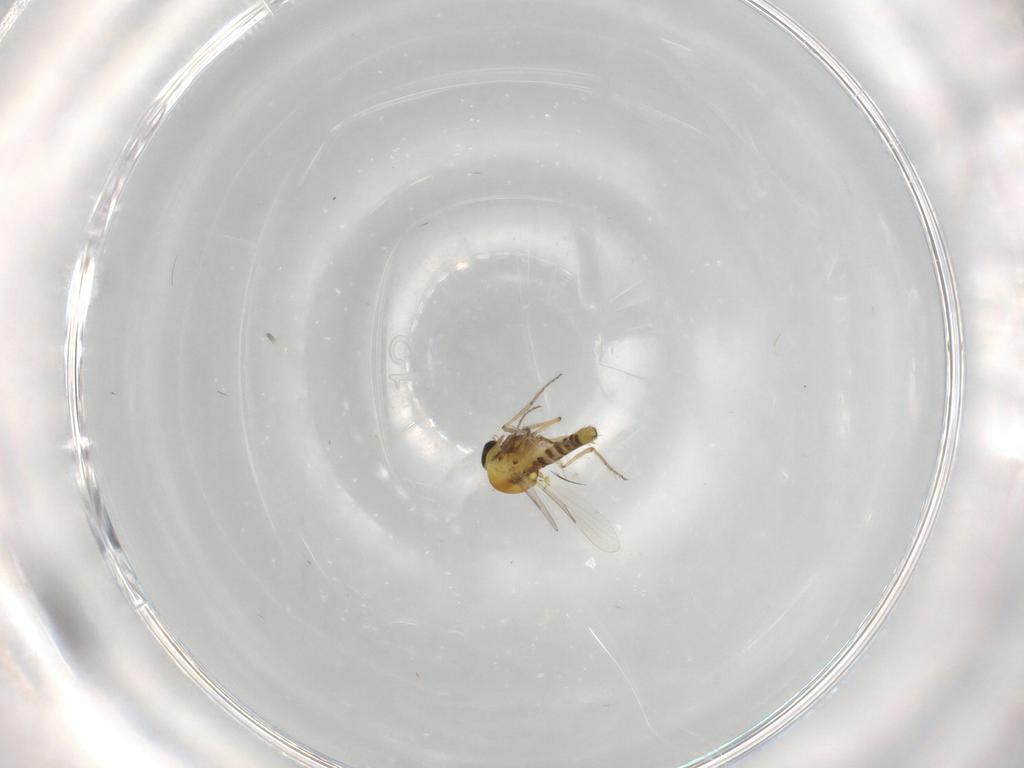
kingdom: Animalia
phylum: Arthropoda
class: Insecta
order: Diptera
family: Ceratopogonidae
